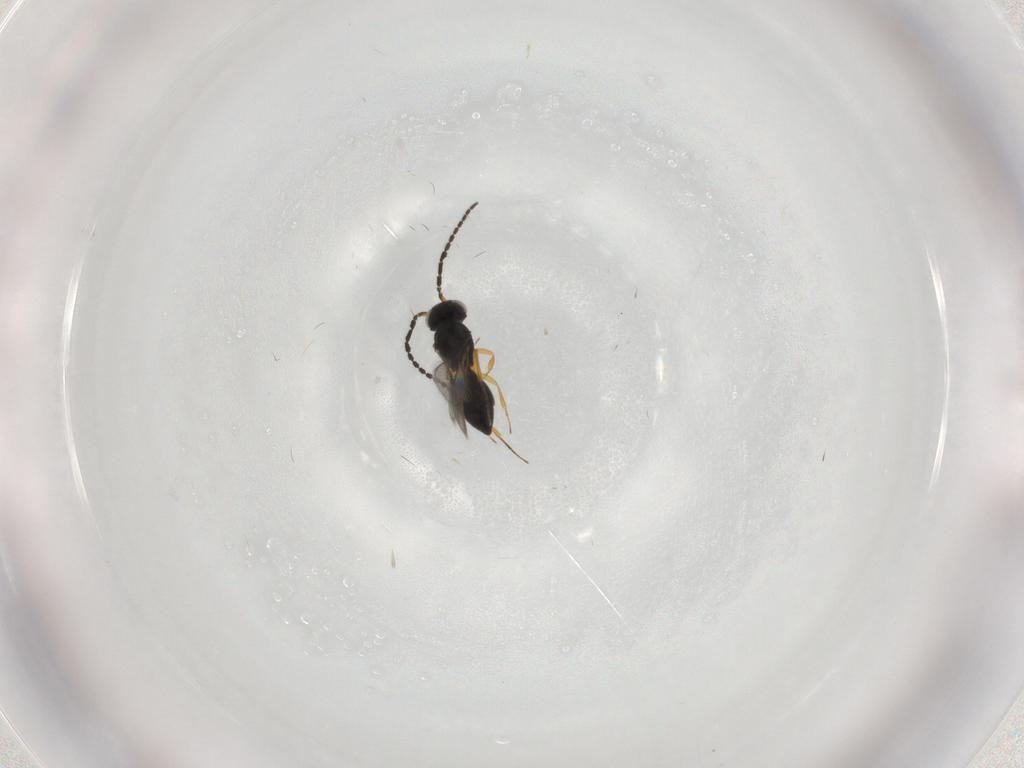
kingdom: Animalia
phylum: Arthropoda
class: Insecta
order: Hymenoptera
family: Scelionidae
